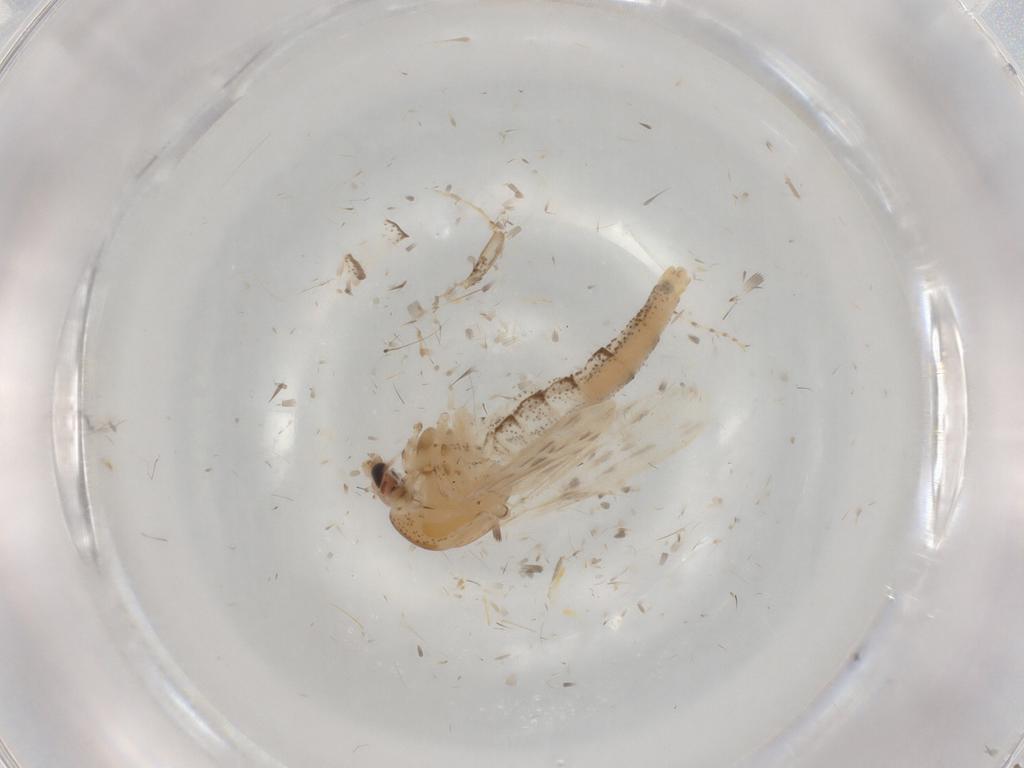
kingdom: Animalia
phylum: Arthropoda
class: Insecta
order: Diptera
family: Chaoboridae
